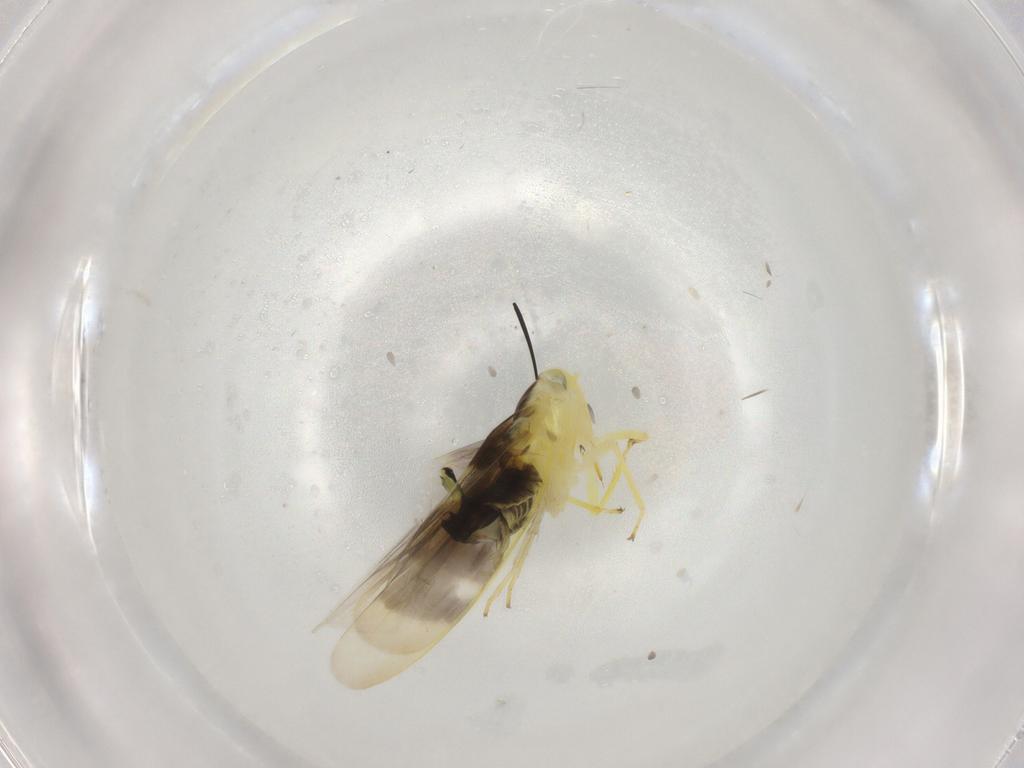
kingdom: Animalia
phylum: Arthropoda
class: Insecta
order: Hemiptera
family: Cicadellidae
